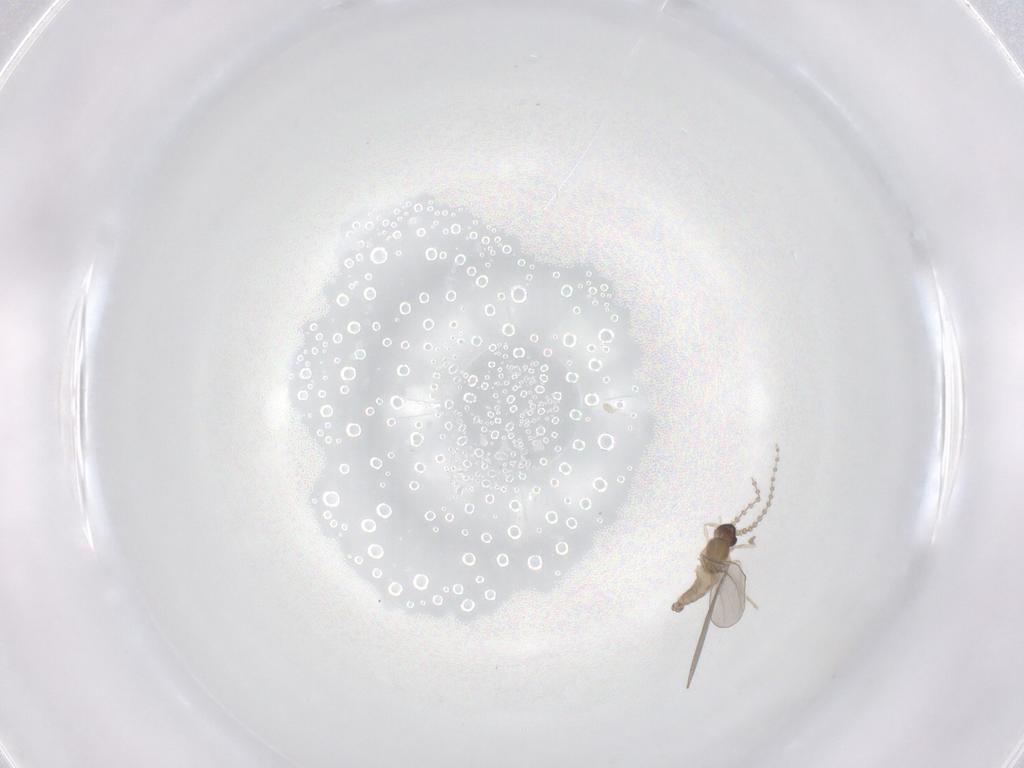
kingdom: Animalia
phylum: Arthropoda
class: Insecta
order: Diptera
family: Cecidomyiidae
